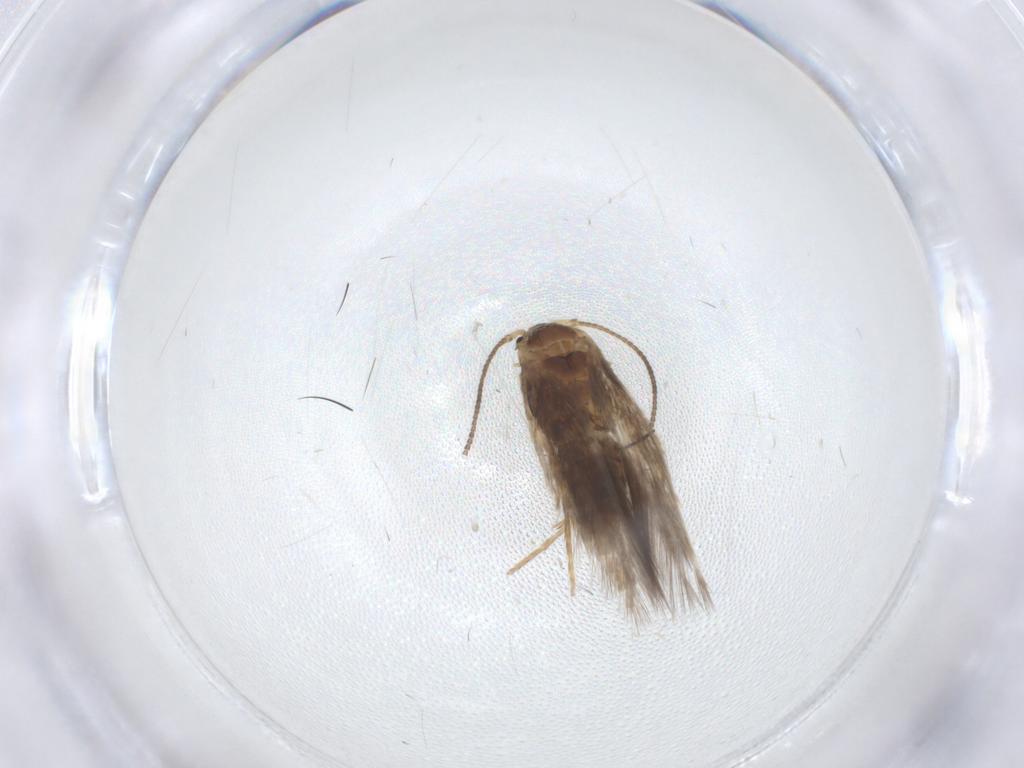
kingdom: Animalia
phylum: Arthropoda
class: Insecta
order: Lepidoptera
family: Nepticulidae
